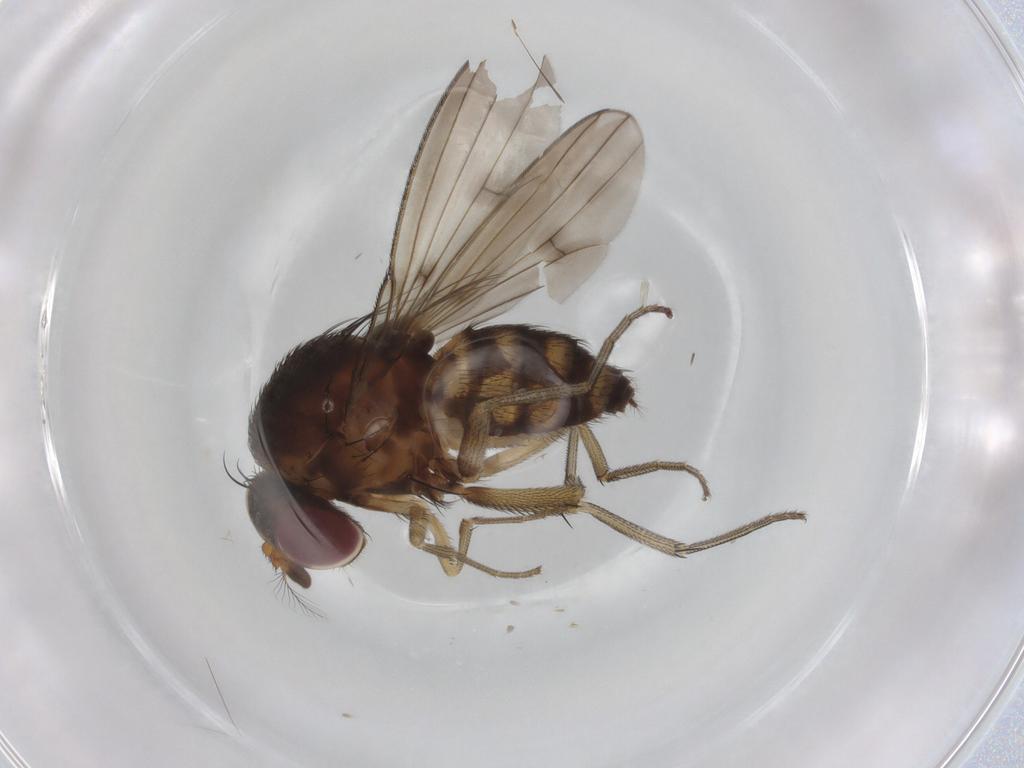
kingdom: Animalia
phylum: Arthropoda
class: Insecta
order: Diptera
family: Curtonotidae
